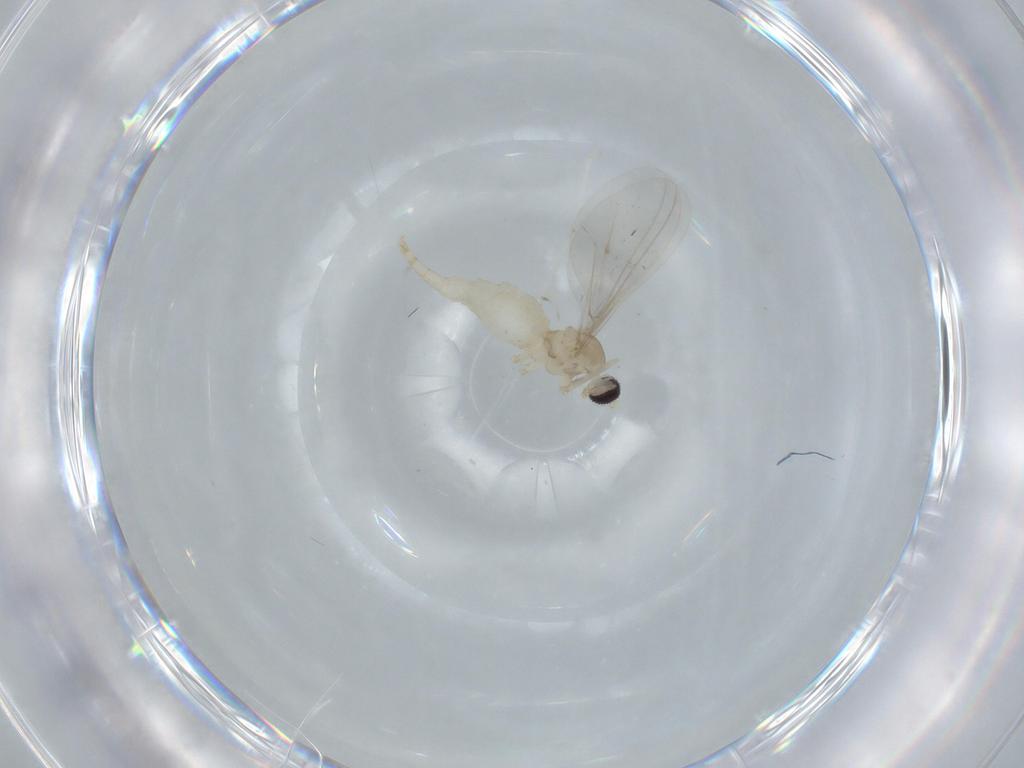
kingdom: Animalia
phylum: Arthropoda
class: Insecta
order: Diptera
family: Cecidomyiidae
